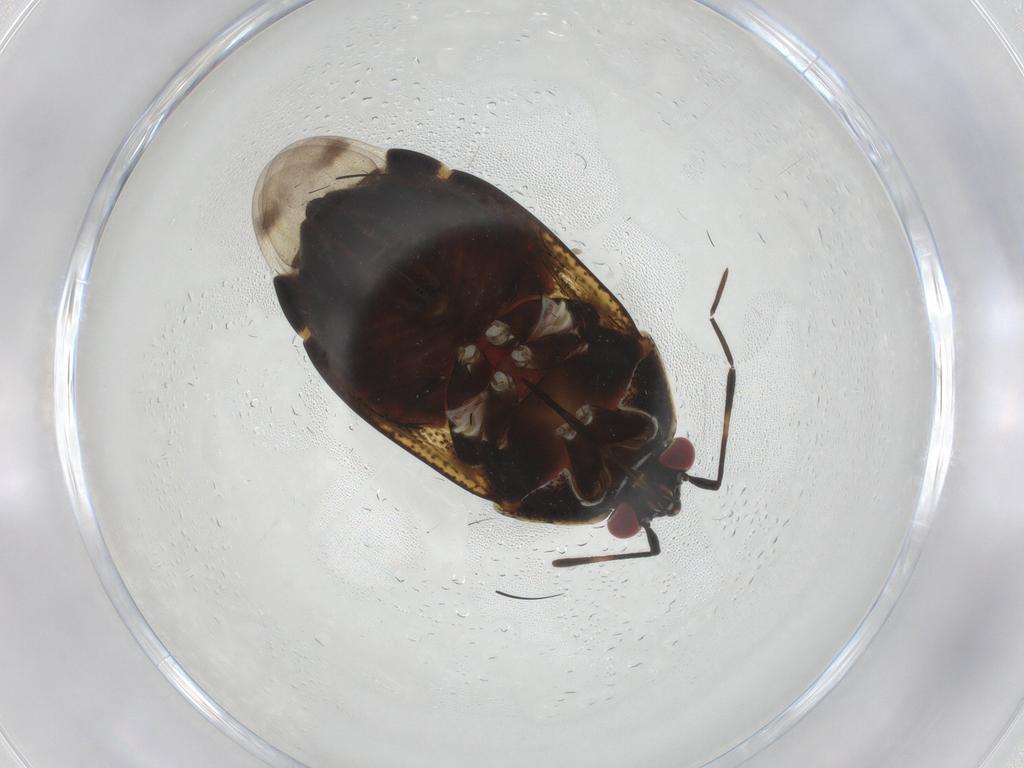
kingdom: Animalia
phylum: Arthropoda
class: Insecta
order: Hemiptera
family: Miridae
